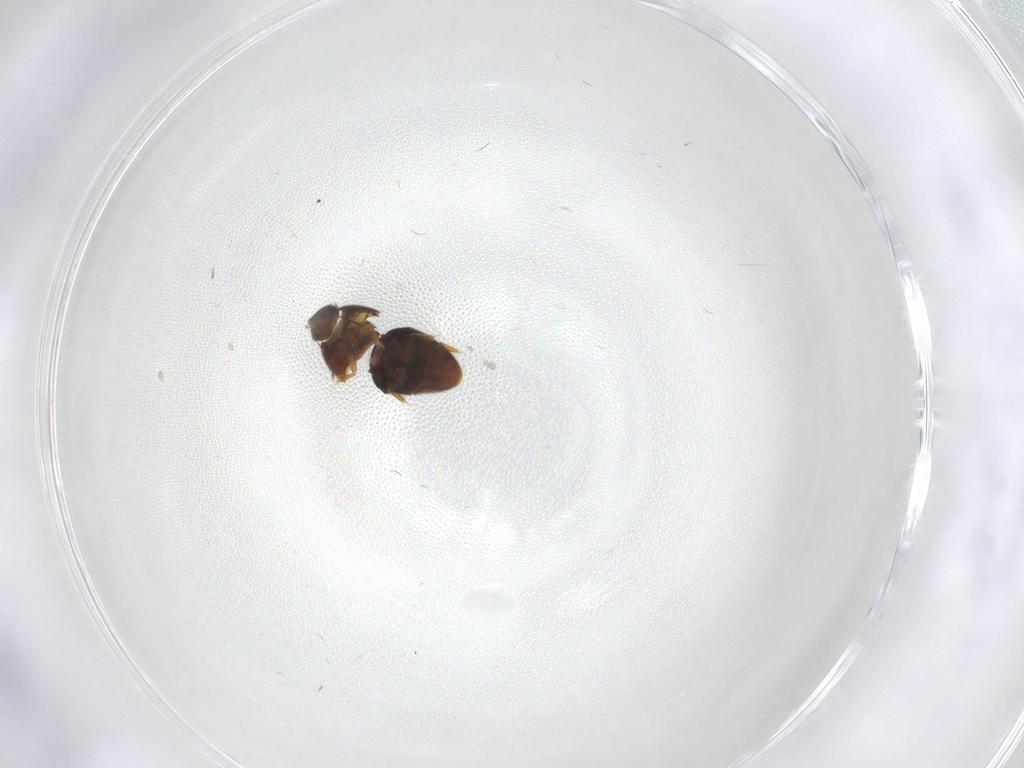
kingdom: Animalia
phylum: Arthropoda
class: Insecta
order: Coleoptera
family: Ptiliidae
